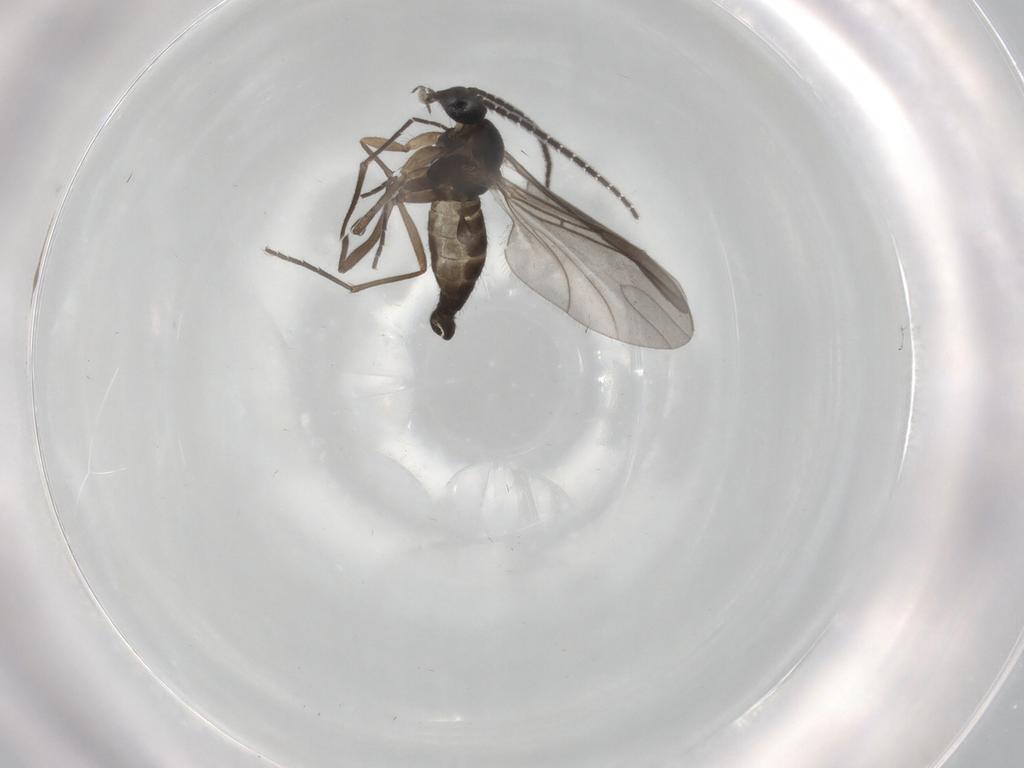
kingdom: Animalia
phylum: Arthropoda
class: Insecta
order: Diptera
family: Sciaridae
